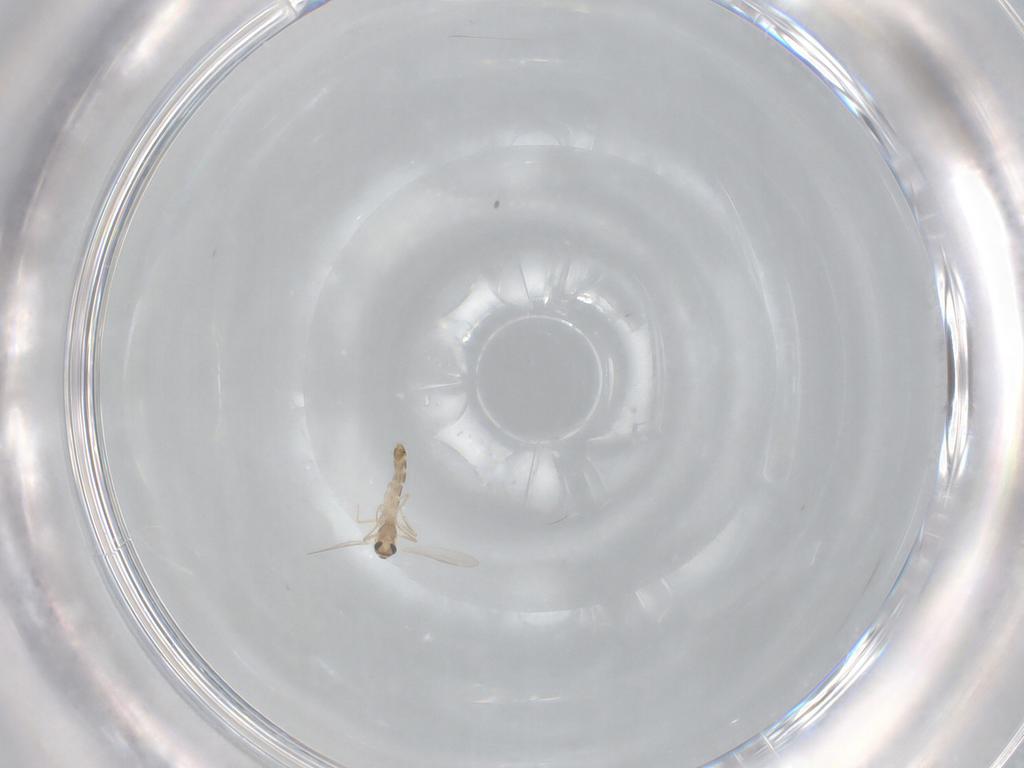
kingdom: Animalia
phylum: Arthropoda
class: Insecta
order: Diptera
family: Chironomidae
